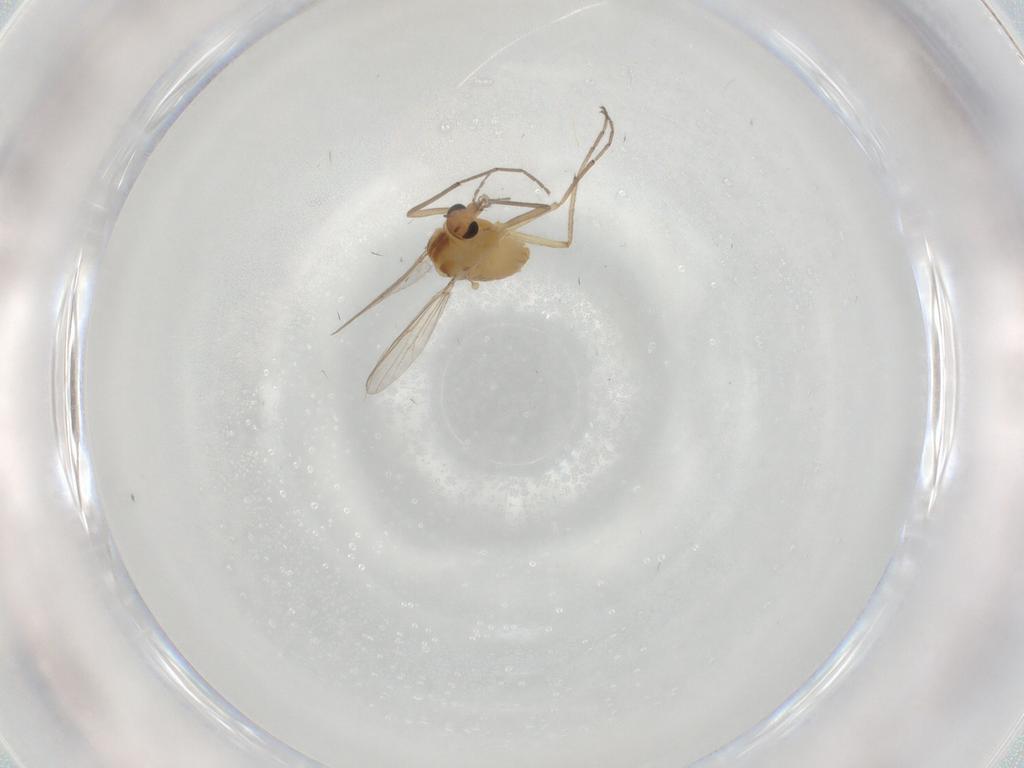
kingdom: Animalia
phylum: Arthropoda
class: Insecta
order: Diptera
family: Chironomidae
